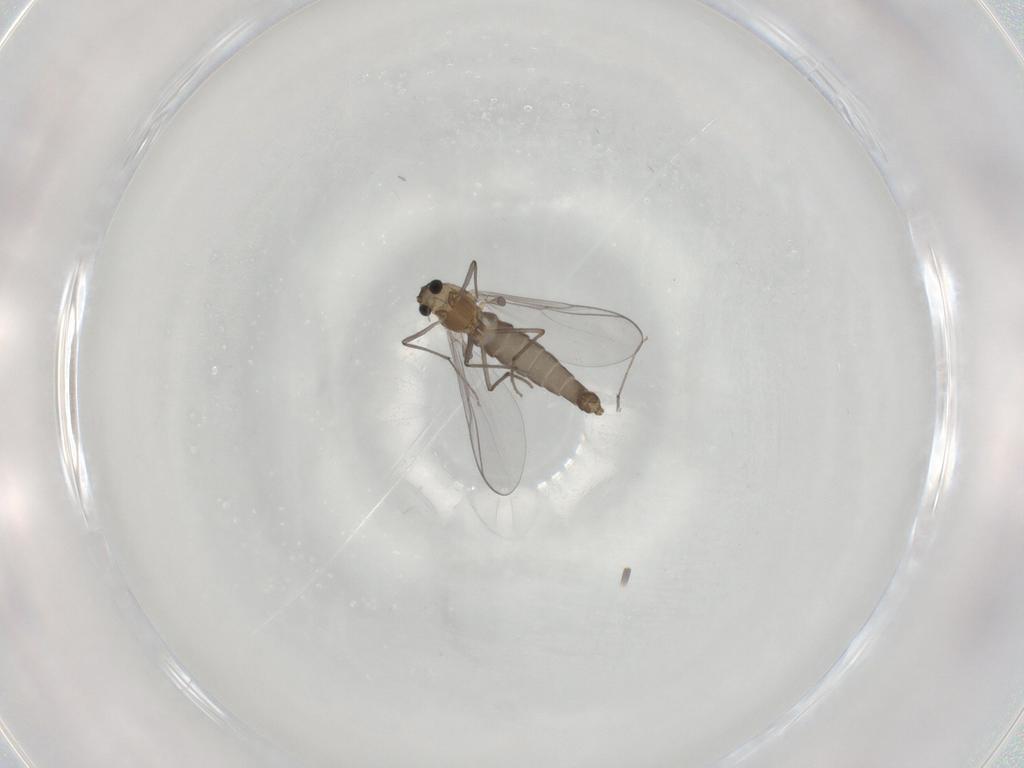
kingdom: Animalia
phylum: Arthropoda
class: Insecta
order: Diptera
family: Chironomidae
